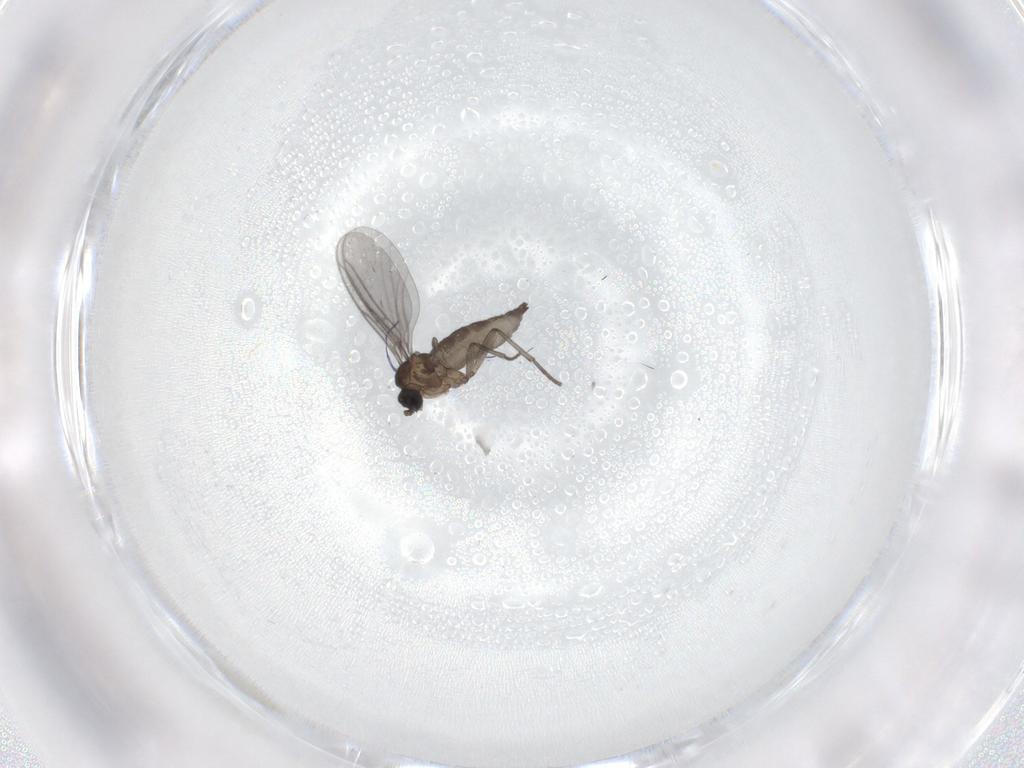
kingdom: Animalia
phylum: Arthropoda
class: Insecta
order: Diptera
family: Sciaridae
